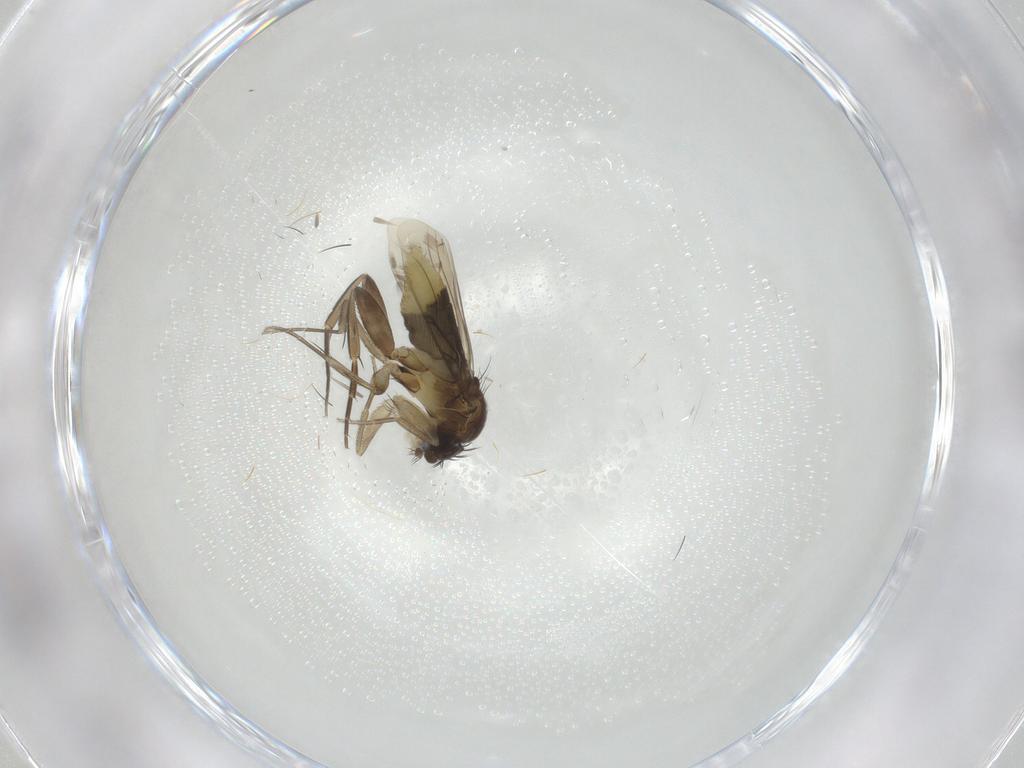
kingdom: Animalia
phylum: Arthropoda
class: Insecta
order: Diptera
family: Phoridae
